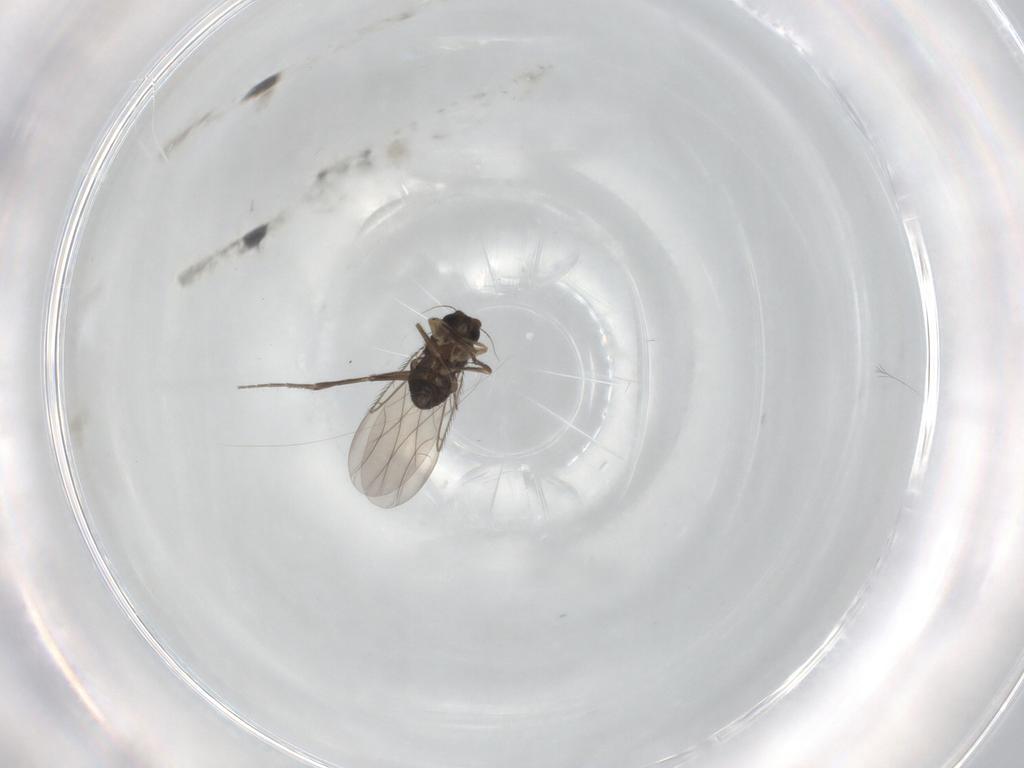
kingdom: Animalia
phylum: Arthropoda
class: Insecta
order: Diptera
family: Phoridae
